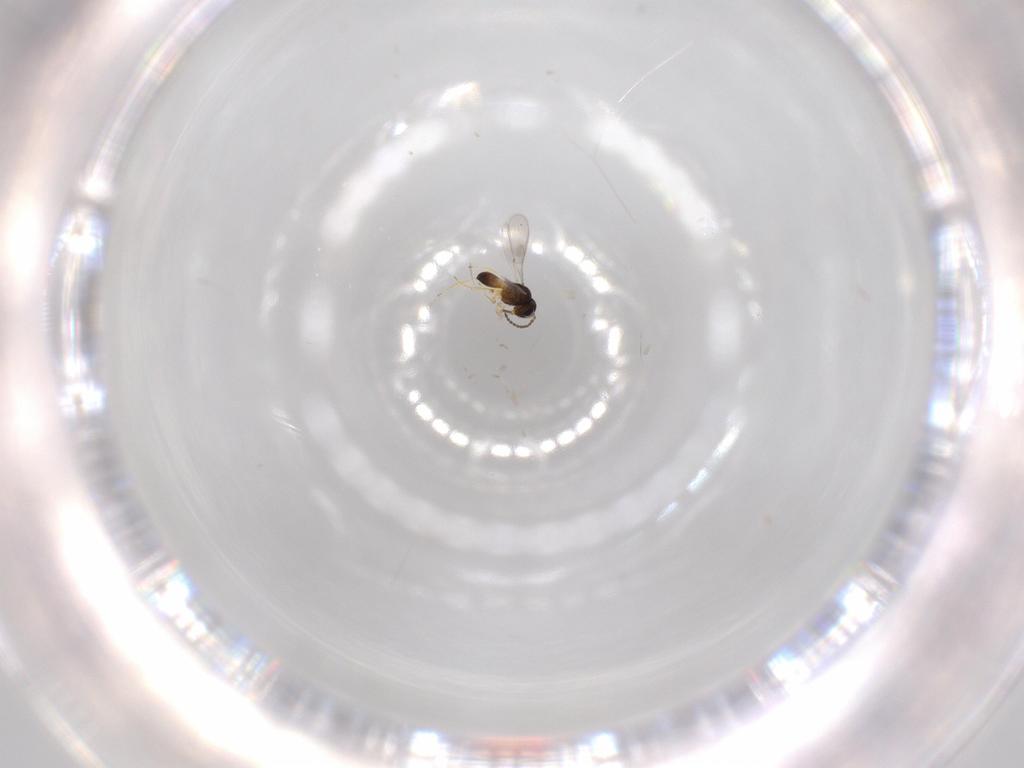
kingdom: Animalia
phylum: Arthropoda
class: Insecta
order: Hymenoptera
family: Scelionidae
